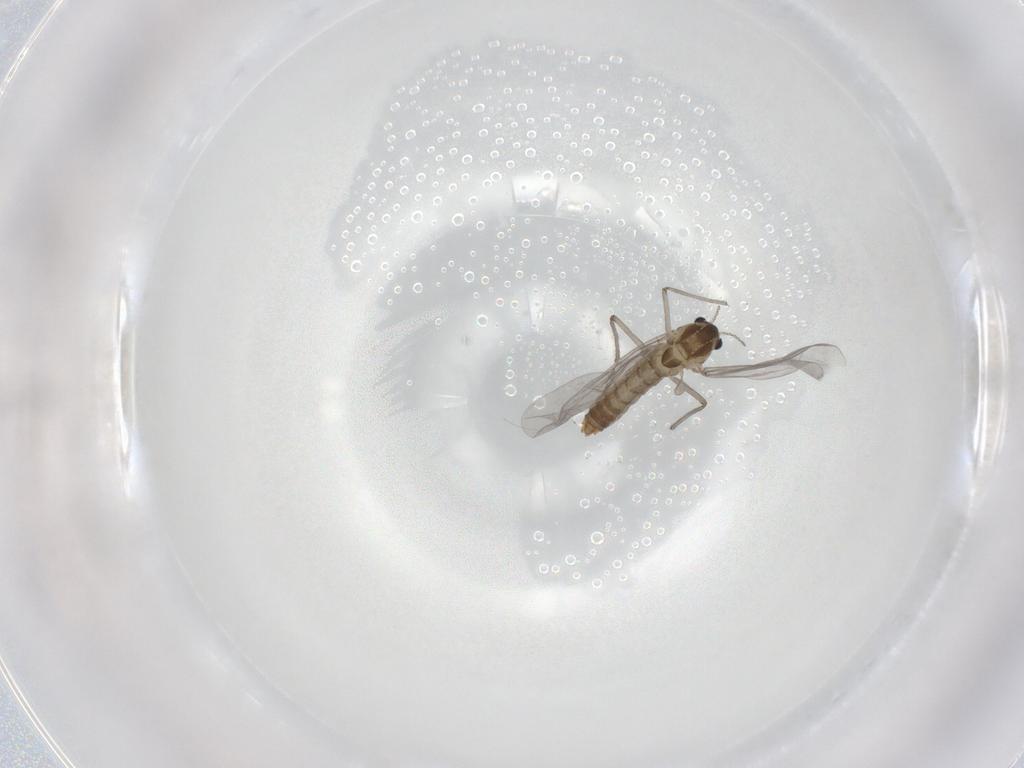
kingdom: Animalia
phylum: Arthropoda
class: Insecta
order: Diptera
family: Chironomidae
